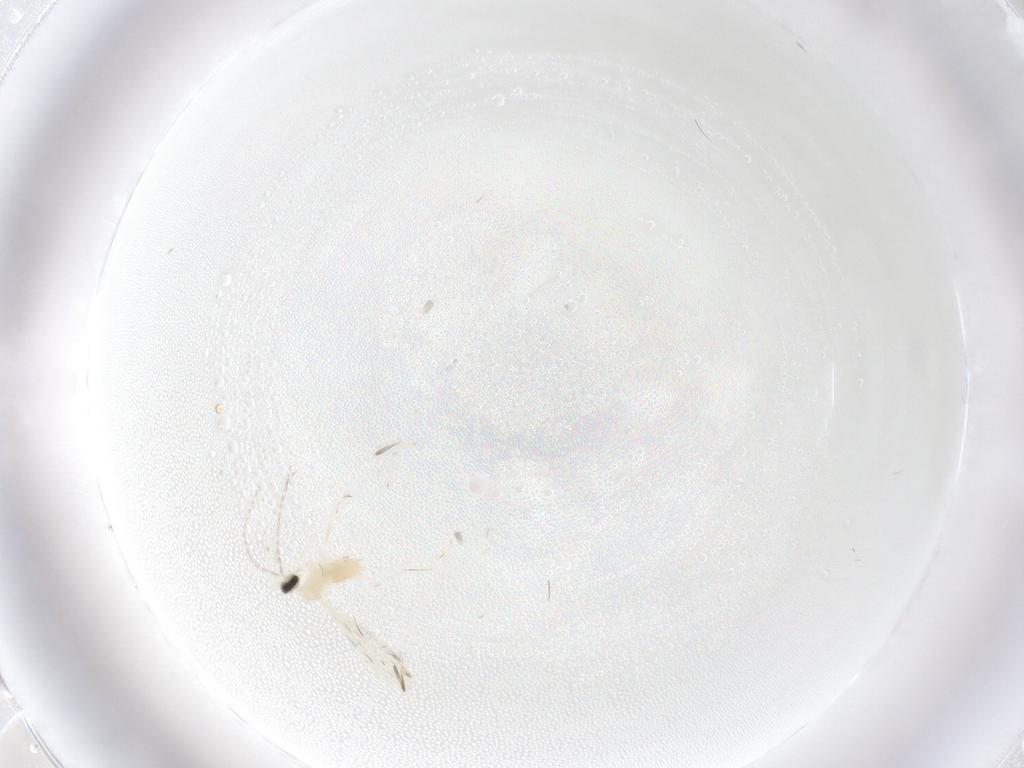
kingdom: Animalia
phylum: Arthropoda
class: Insecta
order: Diptera
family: Cecidomyiidae
